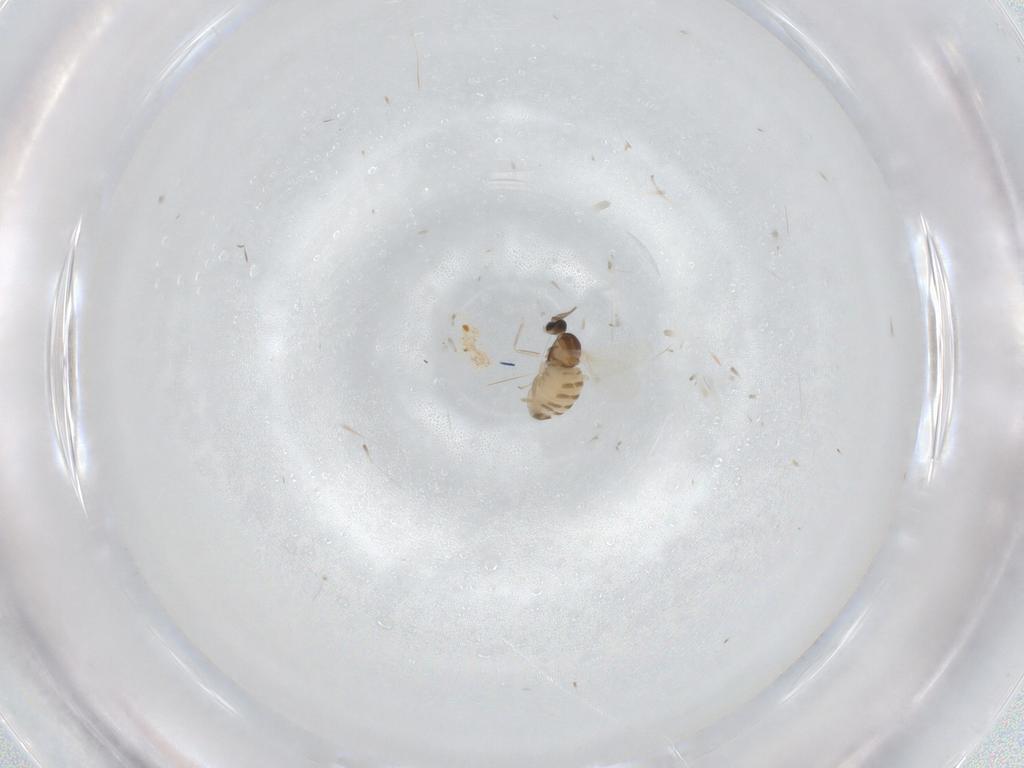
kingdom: Animalia
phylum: Arthropoda
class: Insecta
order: Diptera
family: Cecidomyiidae
